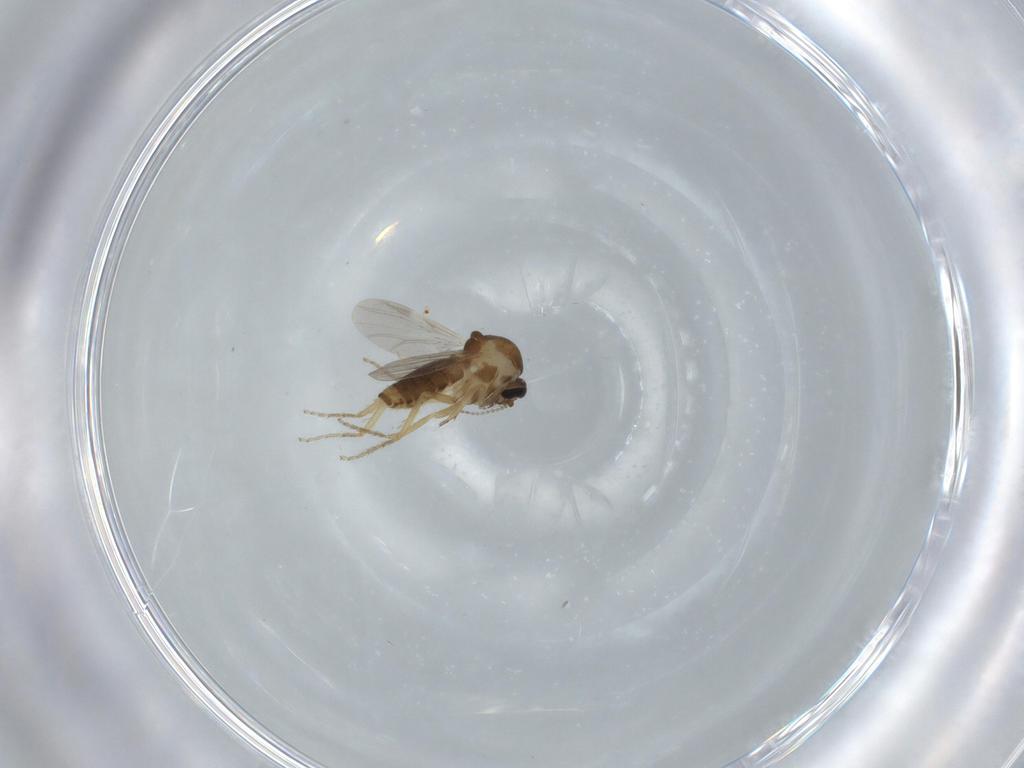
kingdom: Animalia
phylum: Arthropoda
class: Insecta
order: Diptera
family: Ceratopogonidae
